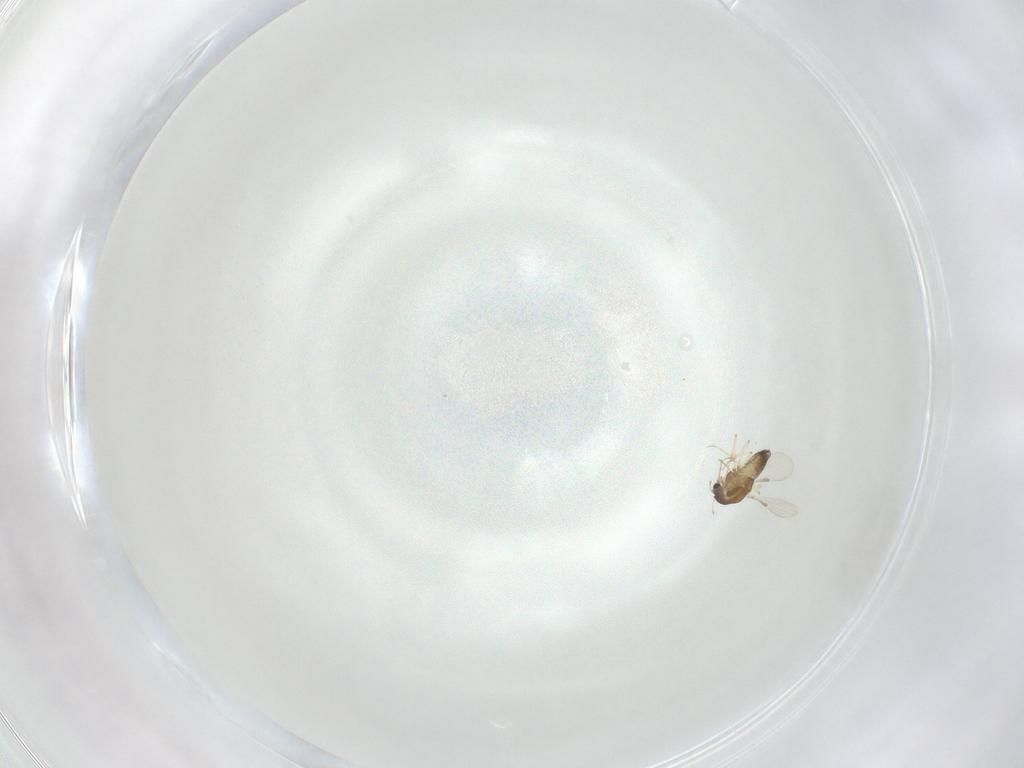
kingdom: Animalia
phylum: Arthropoda
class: Insecta
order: Diptera
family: Chironomidae
